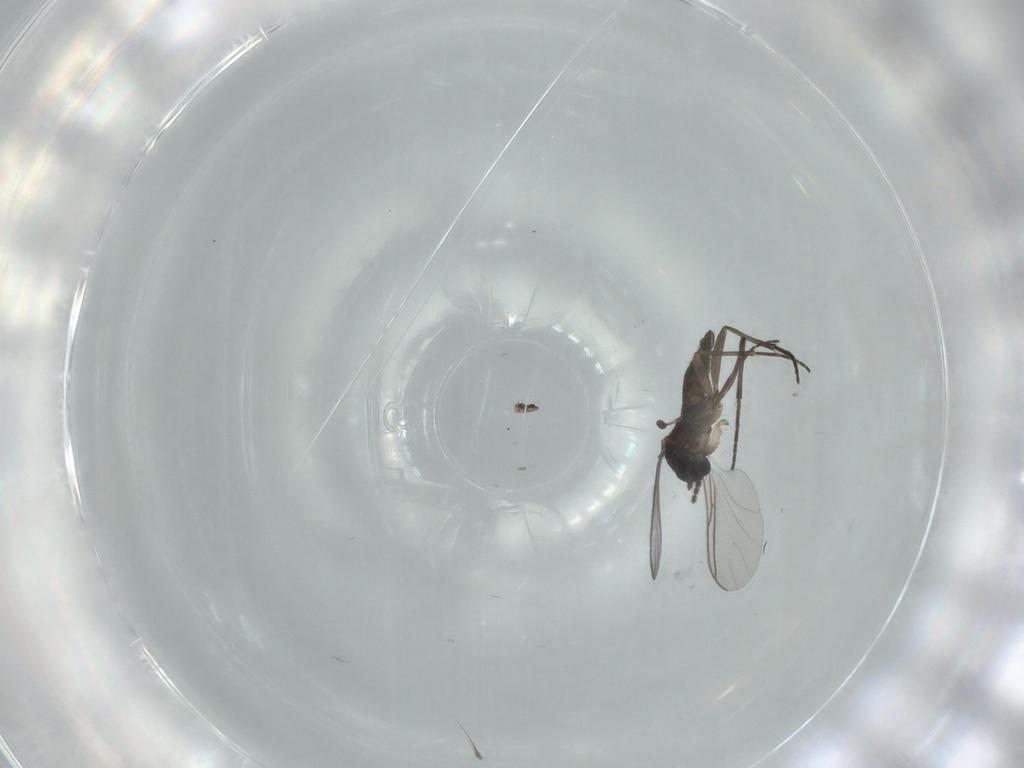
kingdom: Animalia
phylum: Arthropoda
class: Insecta
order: Diptera
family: Sciaridae
